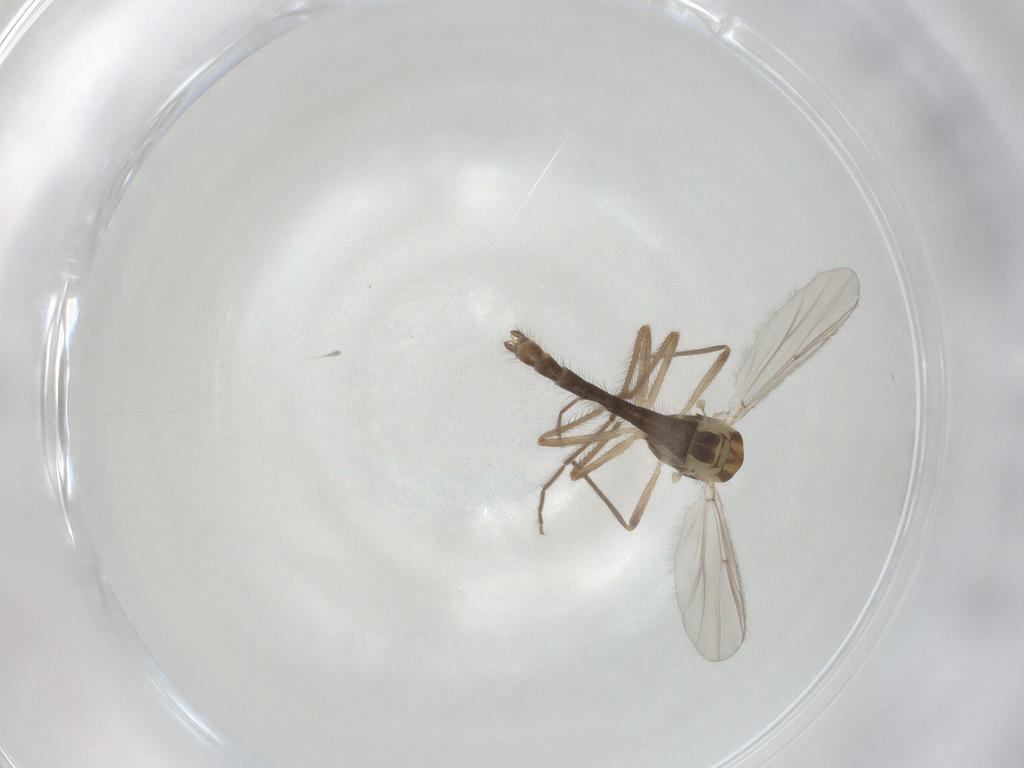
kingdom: Animalia
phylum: Arthropoda
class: Insecta
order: Diptera
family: Chironomidae
